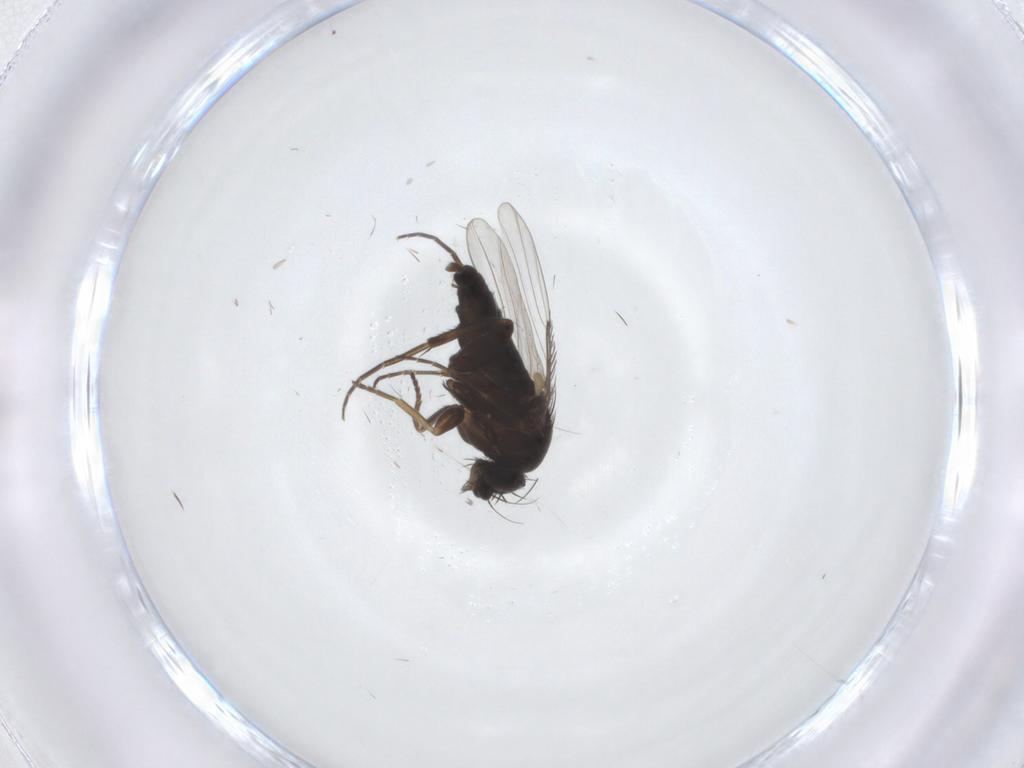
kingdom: Animalia
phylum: Arthropoda
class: Insecta
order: Diptera
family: Phoridae
